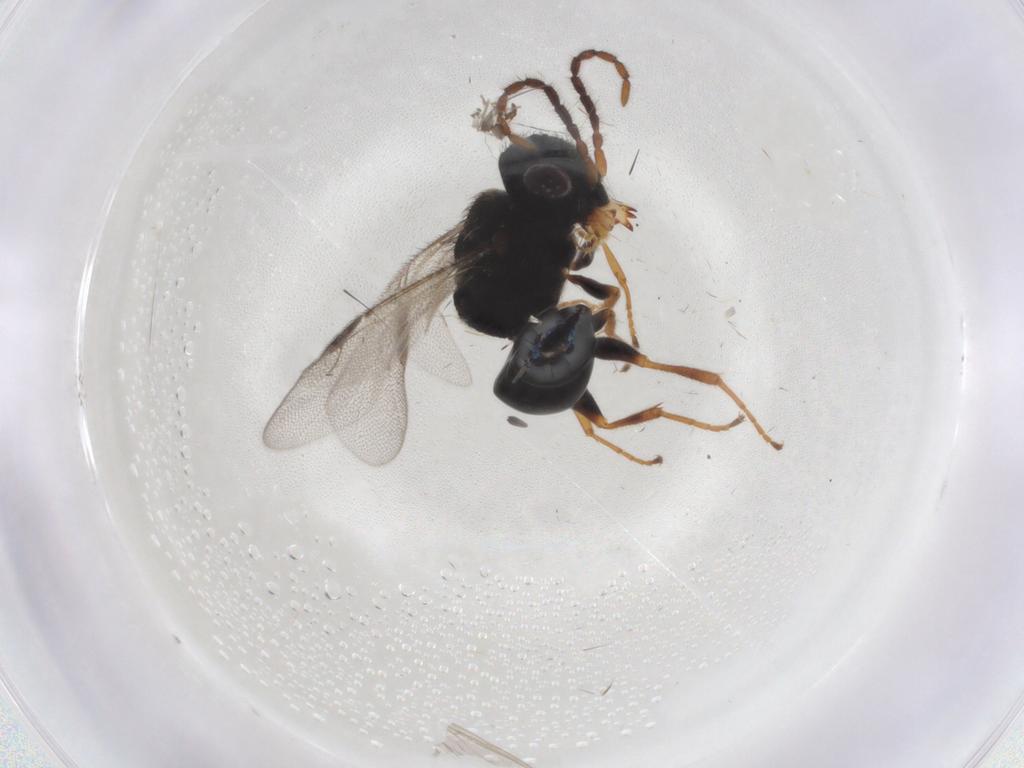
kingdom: Animalia
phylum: Arthropoda
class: Insecta
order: Hymenoptera
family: Dryinidae
